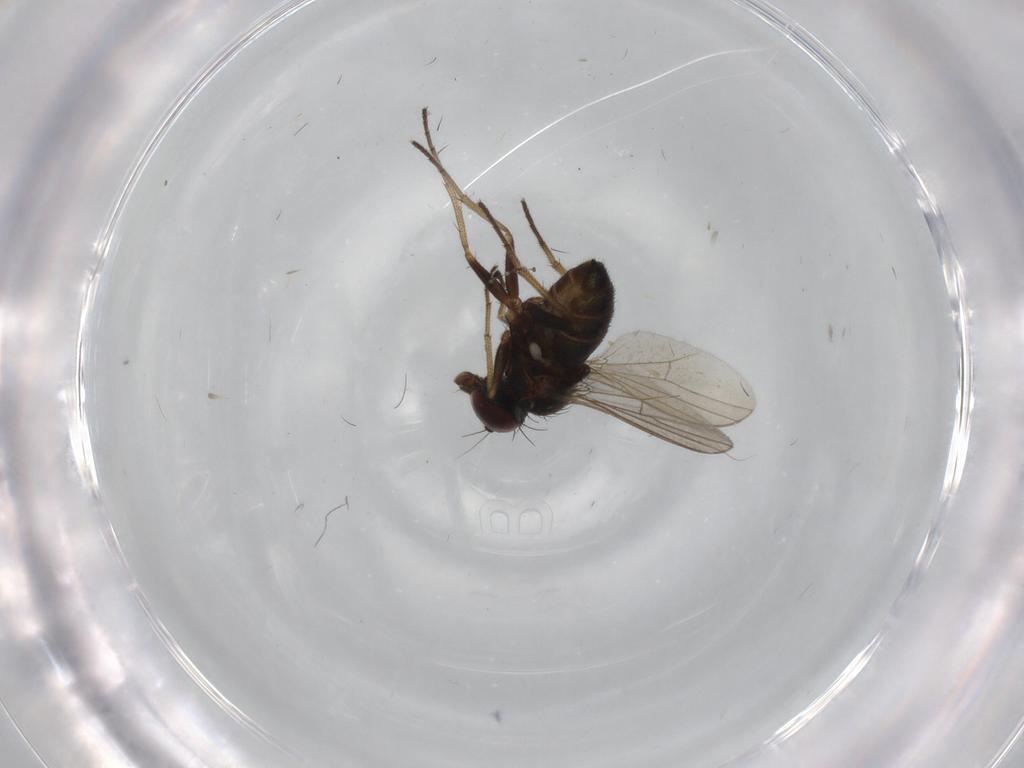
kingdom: Animalia
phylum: Arthropoda
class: Insecta
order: Diptera
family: Dolichopodidae
